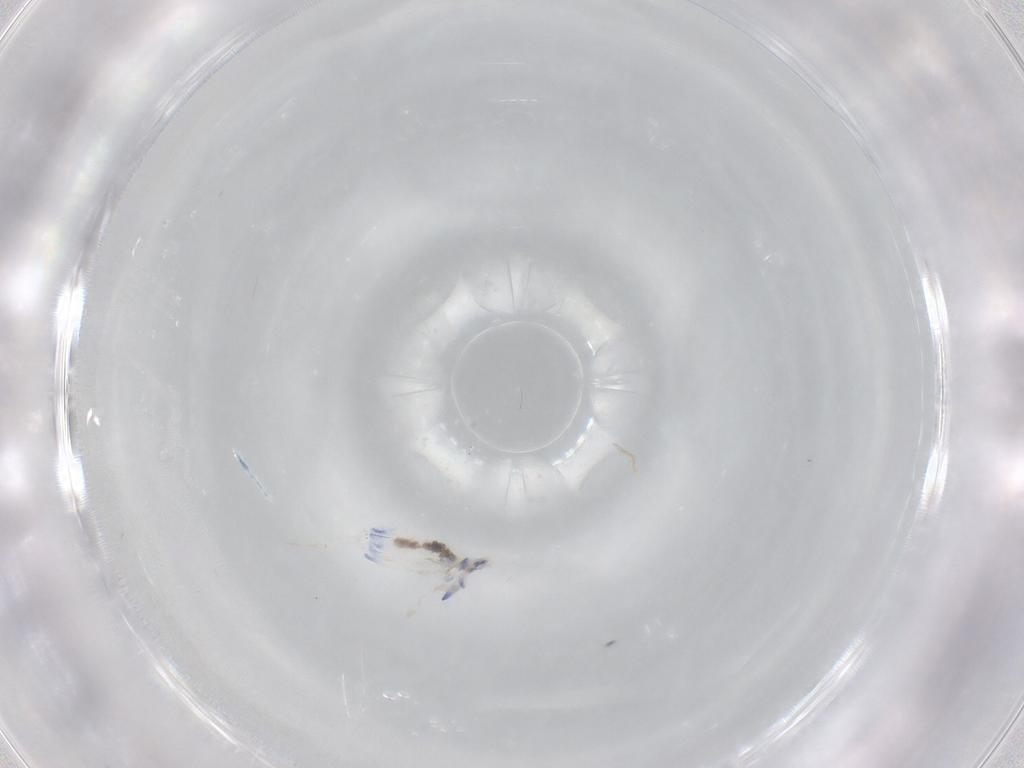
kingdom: Animalia
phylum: Arthropoda
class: Collembola
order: Entomobryomorpha
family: Entomobryidae
